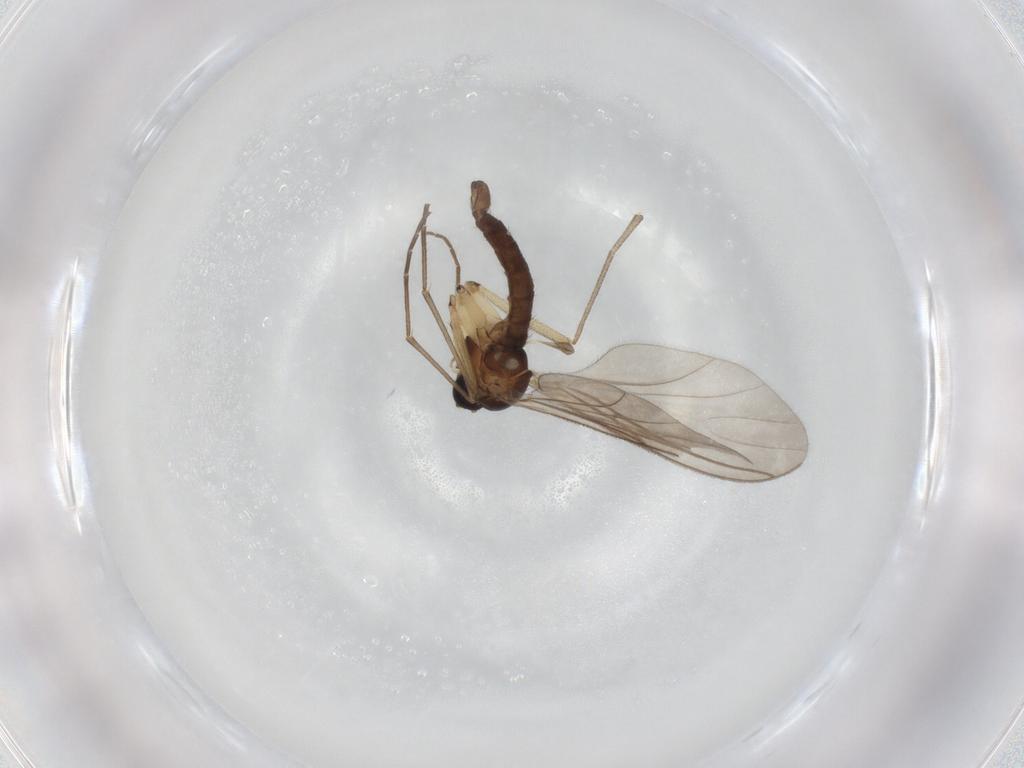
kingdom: Animalia
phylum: Arthropoda
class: Insecta
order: Diptera
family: Sciaridae
